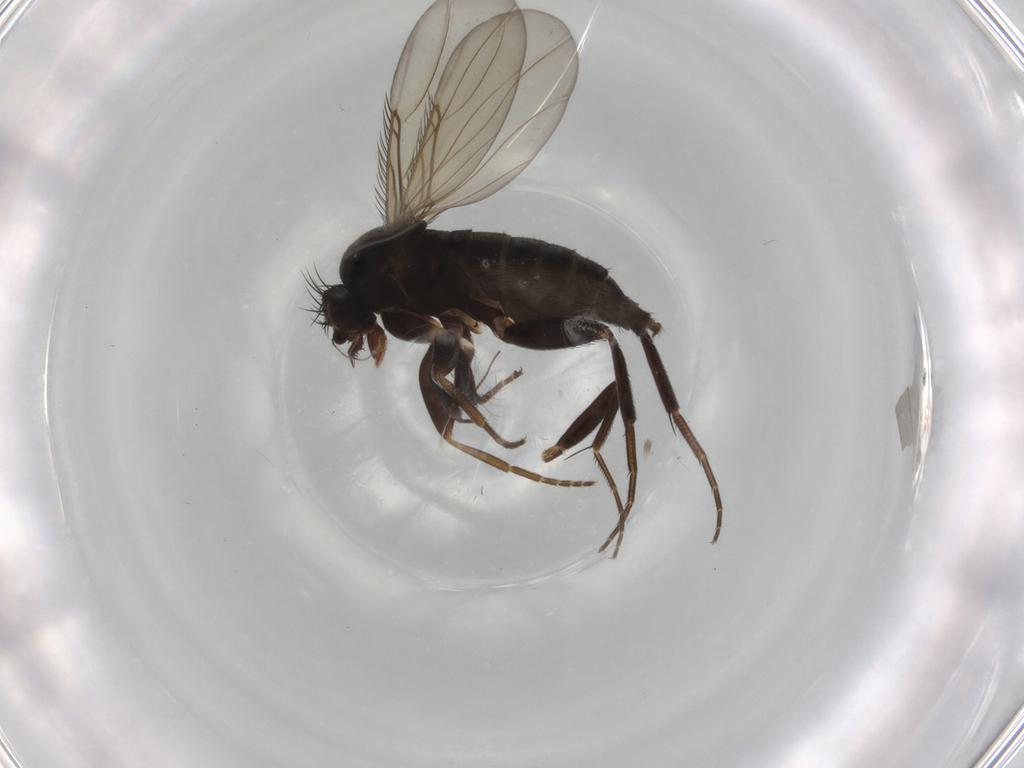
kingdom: Animalia
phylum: Arthropoda
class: Insecta
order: Diptera
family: Phoridae
